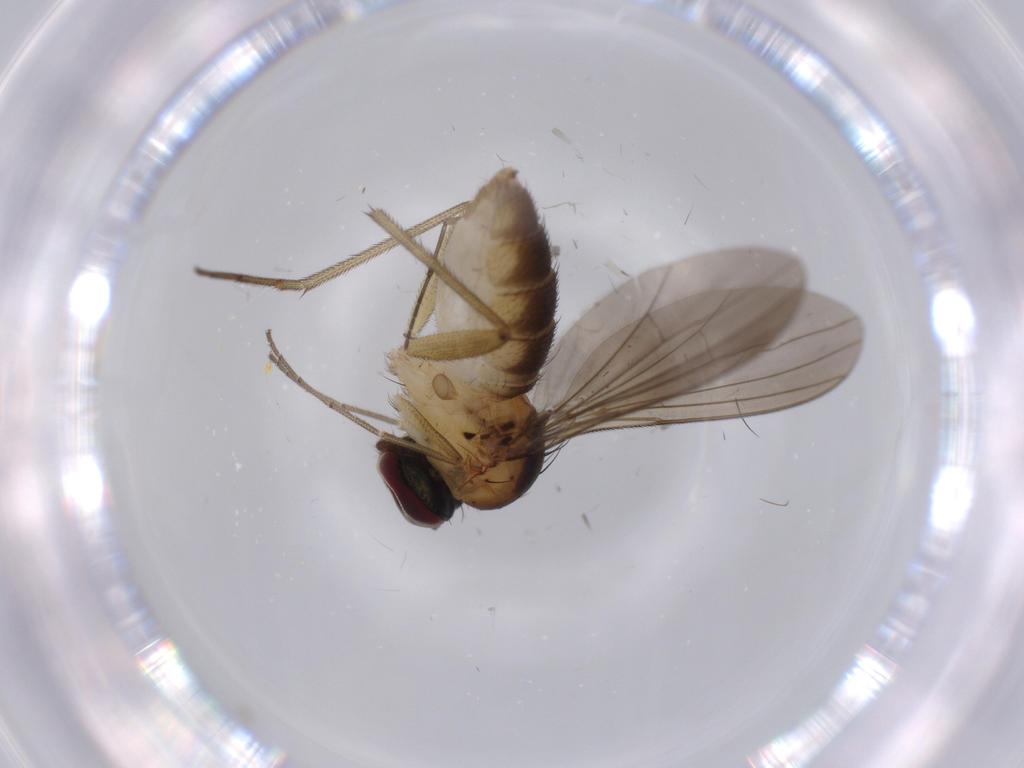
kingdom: Animalia
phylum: Arthropoda
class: Insecta
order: Diptera
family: Dolichopodidae
